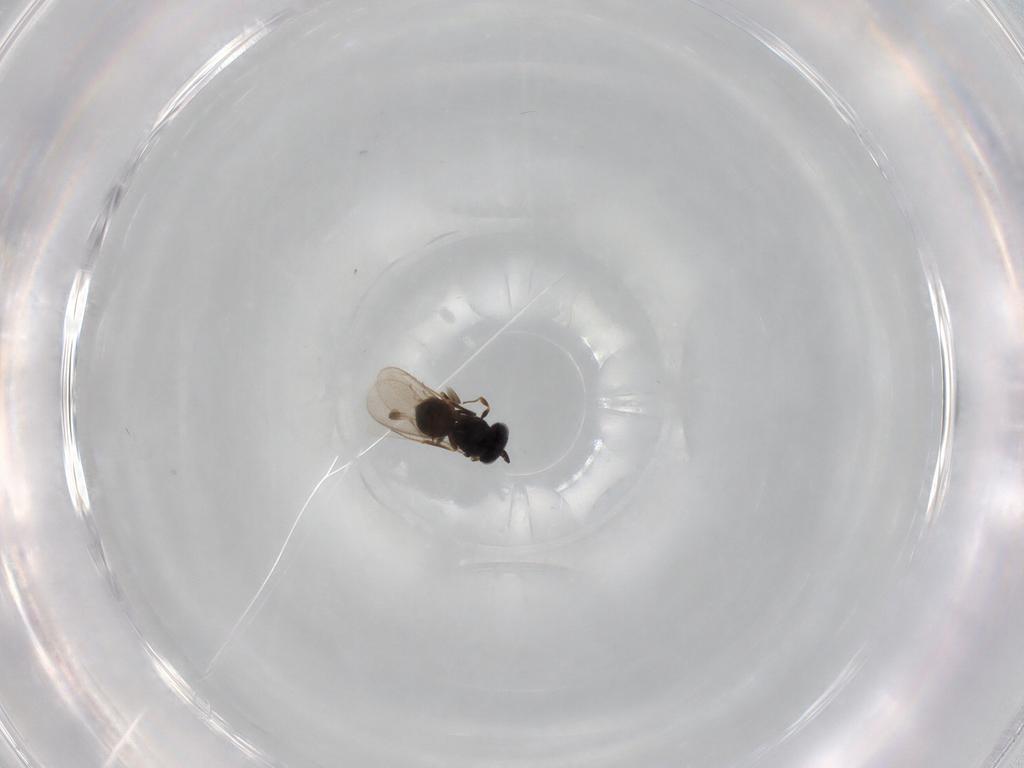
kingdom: Animalia
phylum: Arthropoda
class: Insecta
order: Hymenoptera
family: Scelionidae
